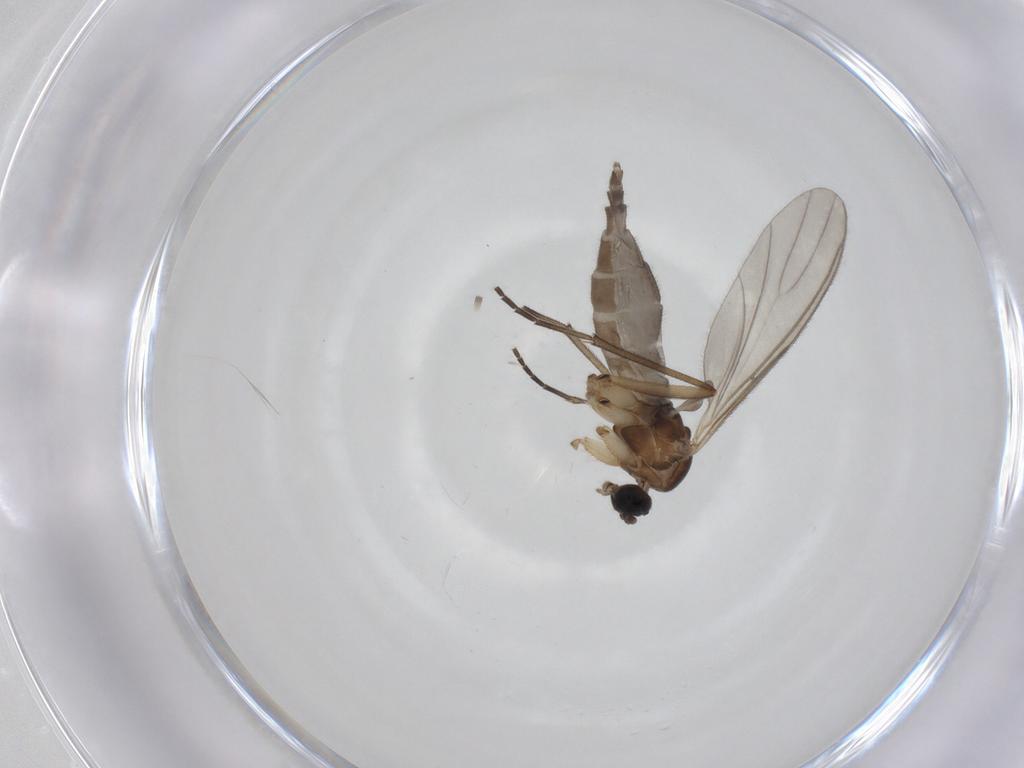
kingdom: Animalia
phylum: Arthropoda
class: Insecta
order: Diptera
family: Sciaridae
